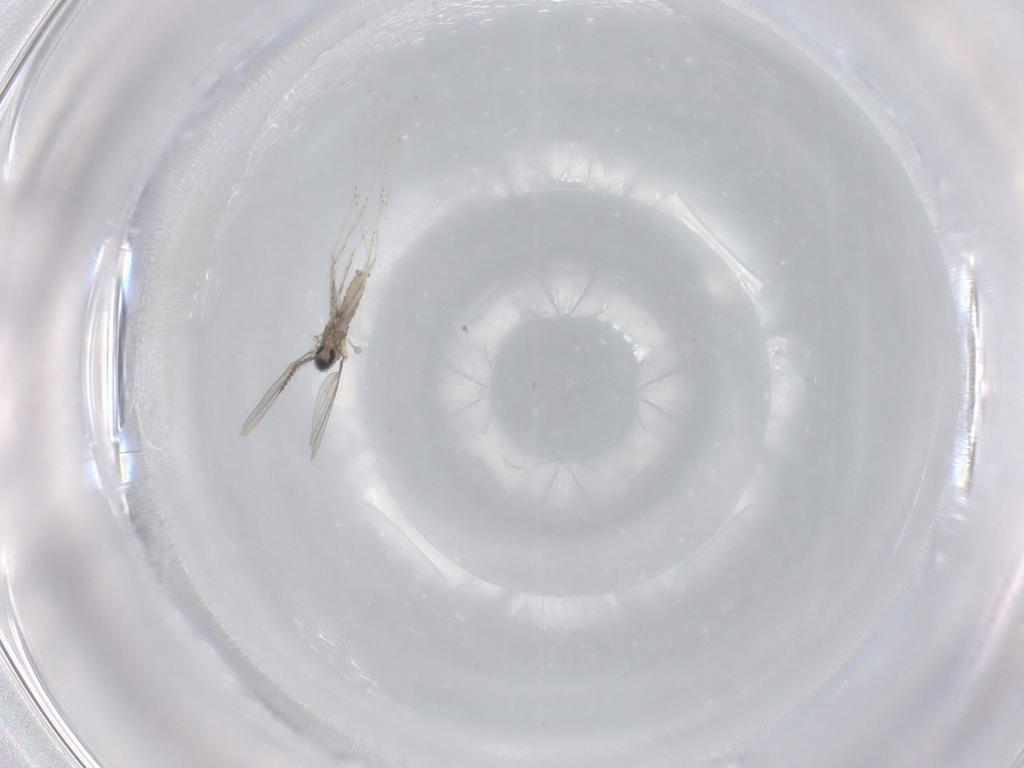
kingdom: Animalia
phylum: Arthropoda
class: Insecta
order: Diptera
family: Cecidomyiidae
